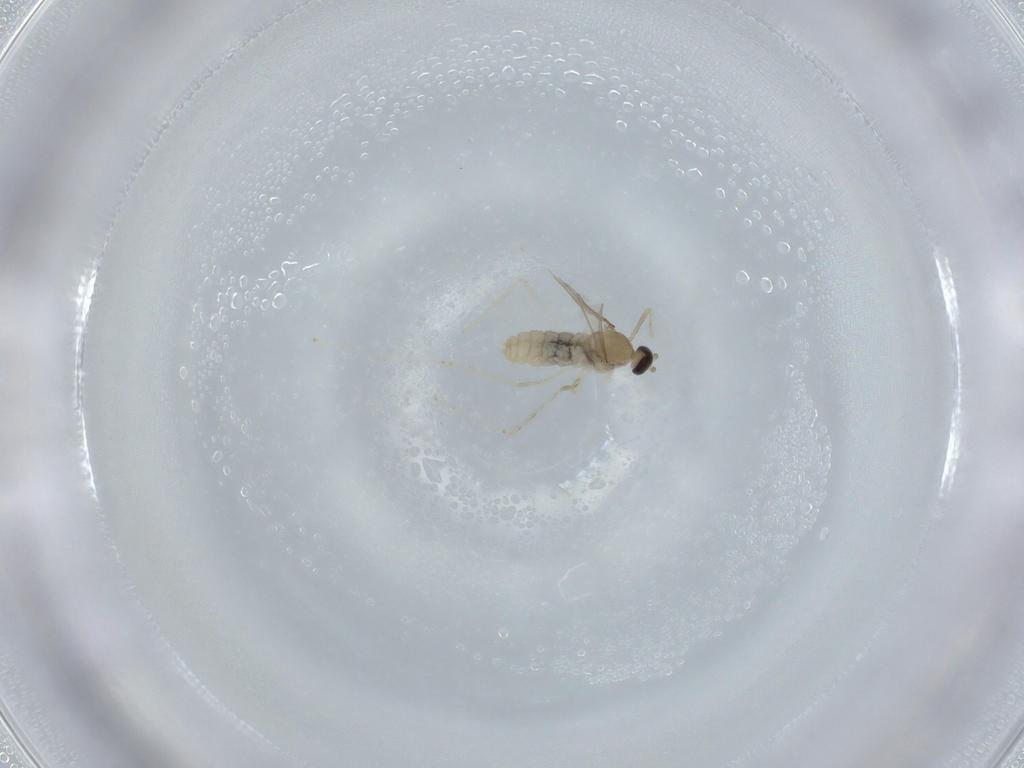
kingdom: Animalia
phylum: Arthropoda
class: Insecta
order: Diptera
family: Cecidomyiidae
